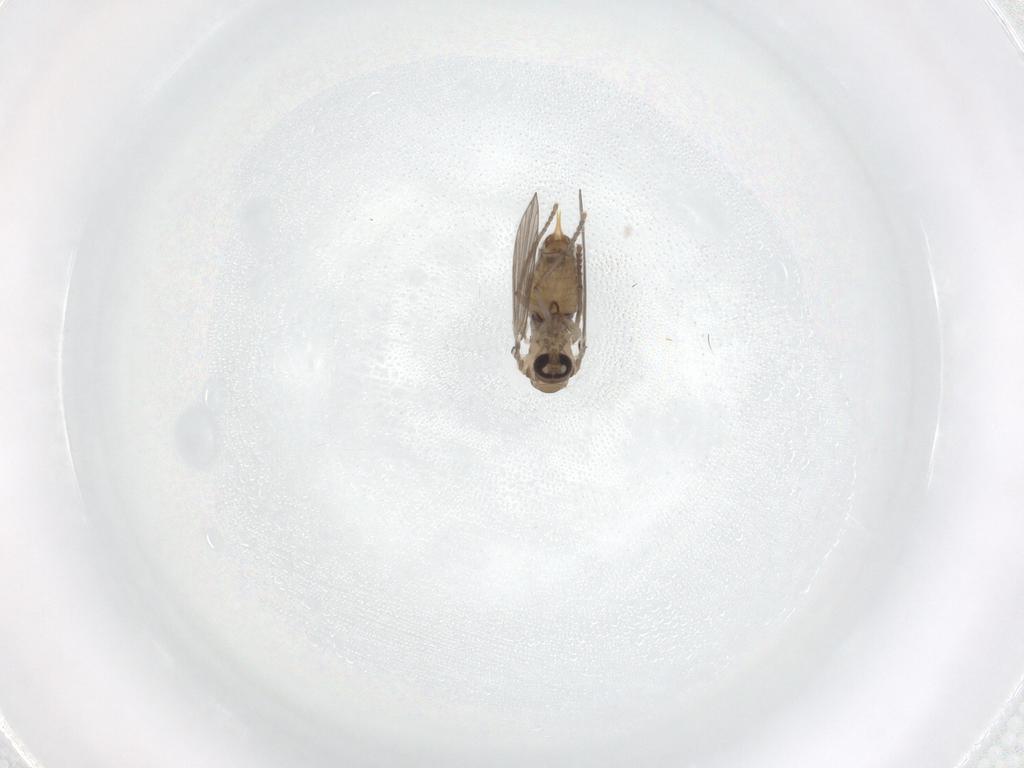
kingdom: Animalia
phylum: Arthropoda
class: Insecta
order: Diptera
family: Psychodidae
